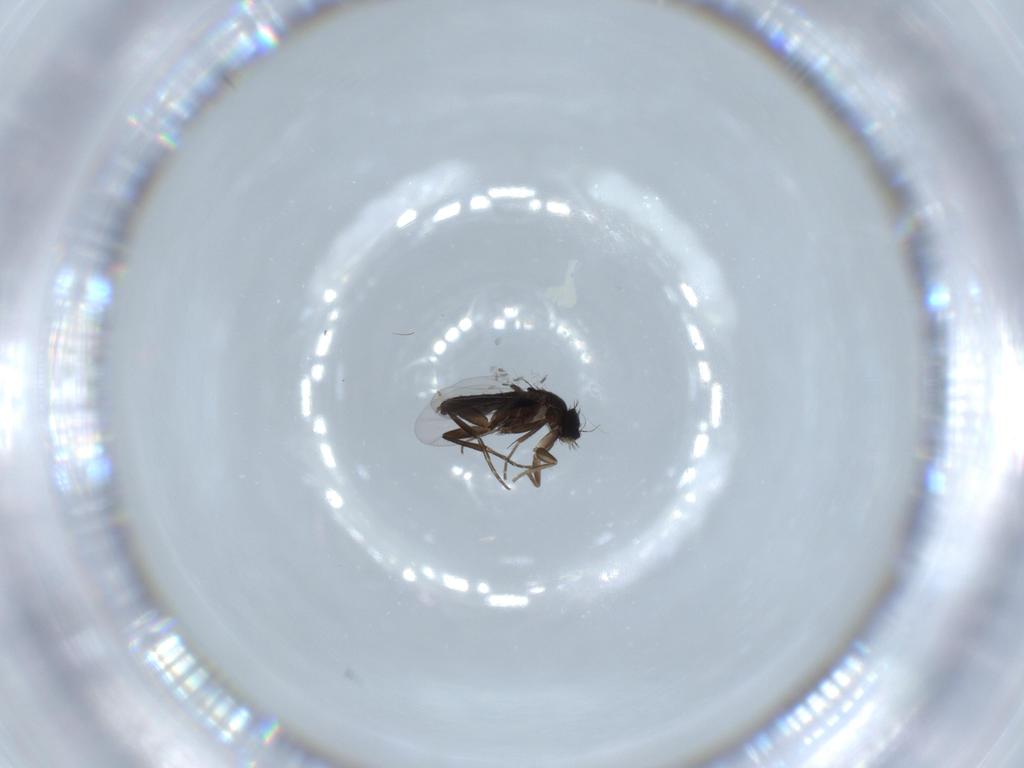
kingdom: Animalia
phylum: Arthropoda
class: Insecta
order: Diptera
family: Phoridae
